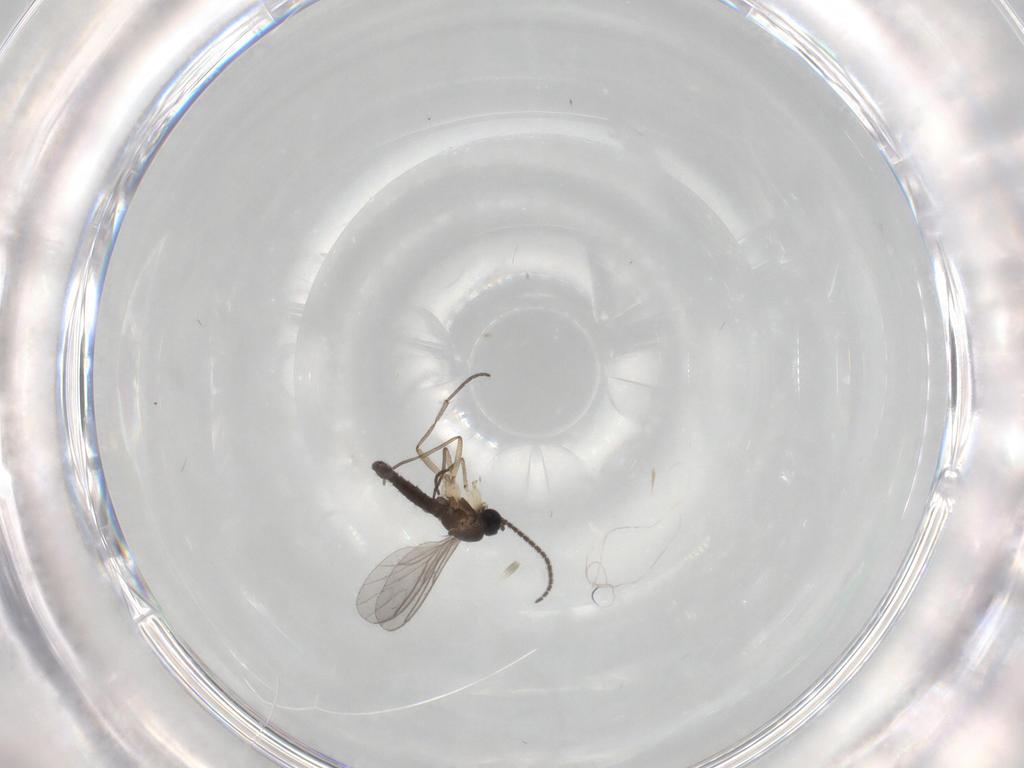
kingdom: Animalia
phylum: Arthropoda
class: Insecta
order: Diptera
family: Sciaridae
